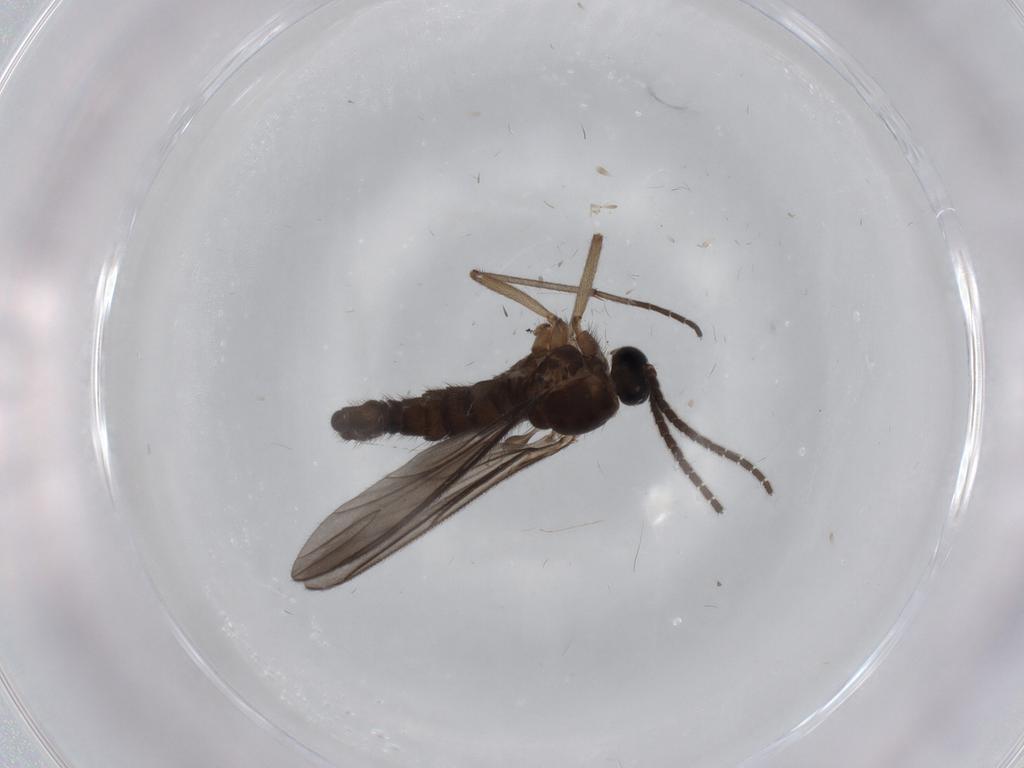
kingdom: Animalia
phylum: Arthropoda
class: Insecta
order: Diptera
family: Sciaridae
